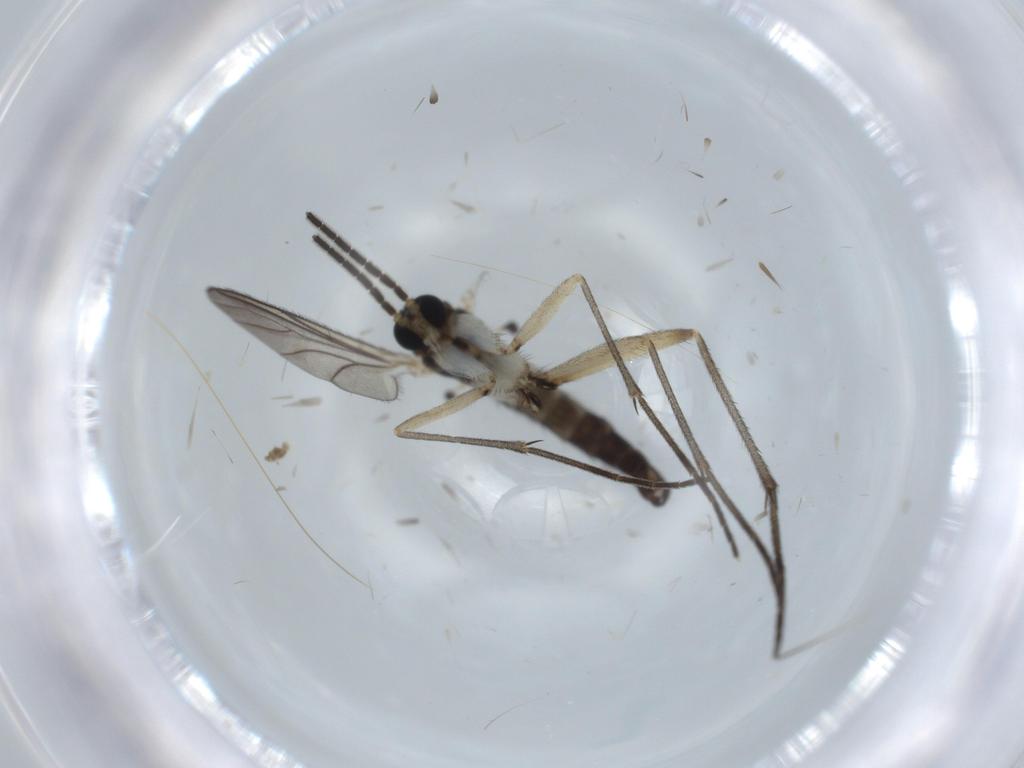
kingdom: Animalia
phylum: Arthropoda
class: Insecta
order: Diptera
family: Sciaridae
